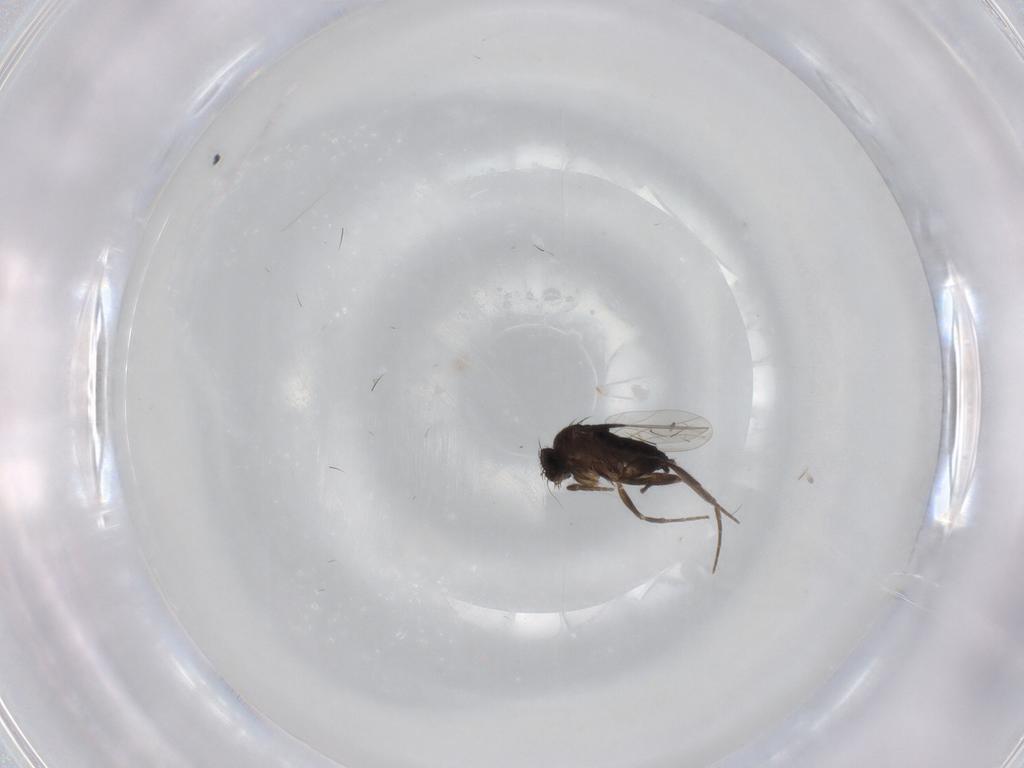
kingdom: Animalia
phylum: Arthropoda
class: Insecta
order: Diptera
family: Phoridae
